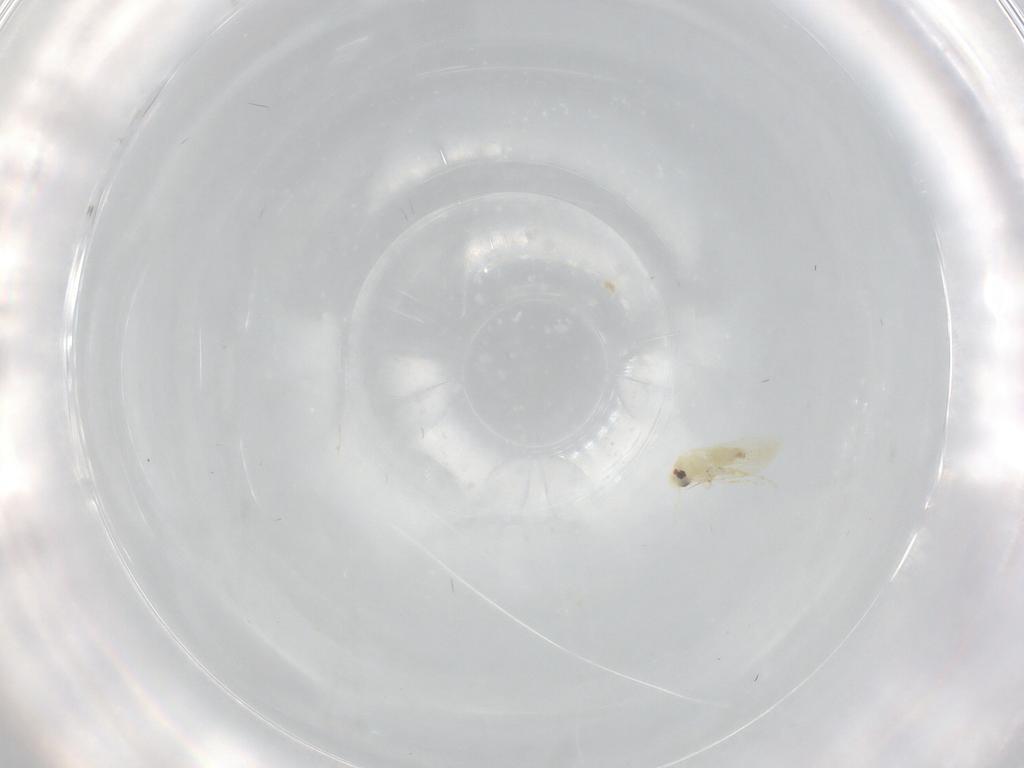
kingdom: Animalia
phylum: Arthropoda
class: Insecta
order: Hemiptera
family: Aleyrodidae
